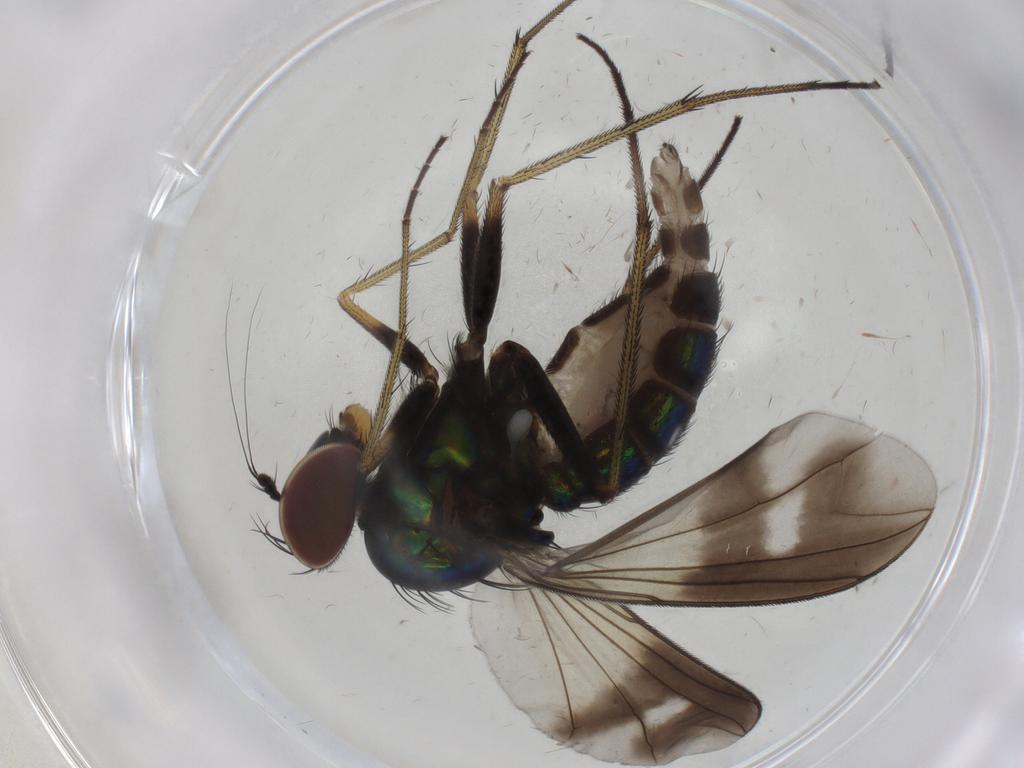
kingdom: Animalia
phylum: Arthropoda
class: Insecta
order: Diptera
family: Dolichopodidae
